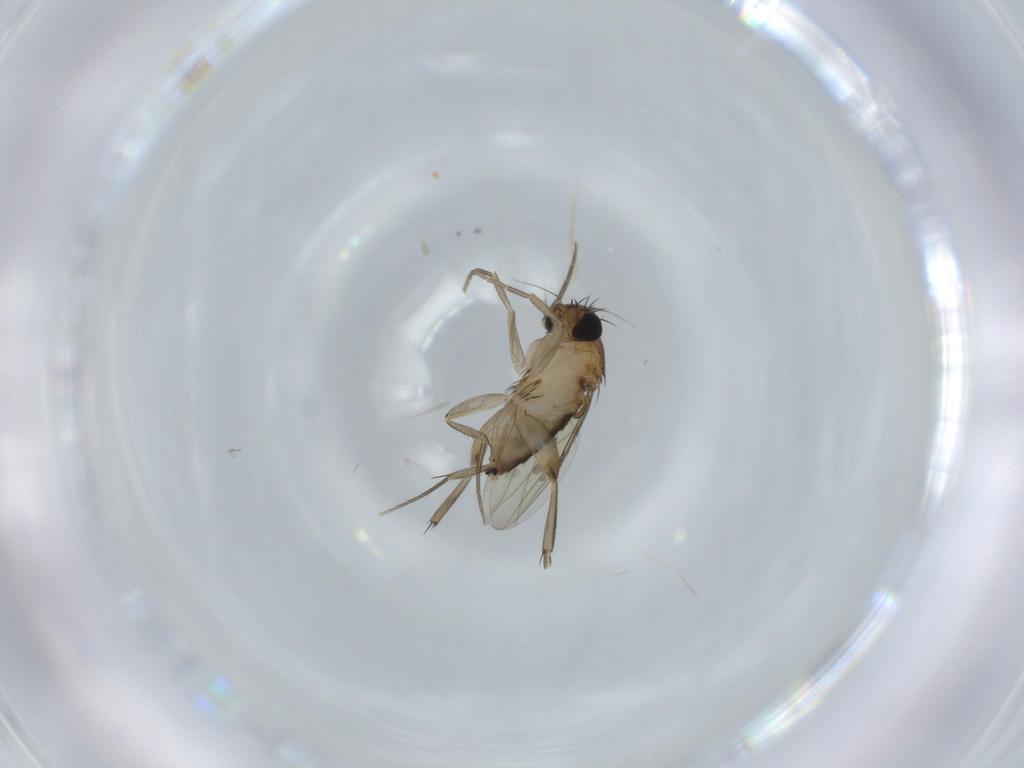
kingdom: Animalia
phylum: Arthropoda
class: Insecta
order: Diptera
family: Phoridae
